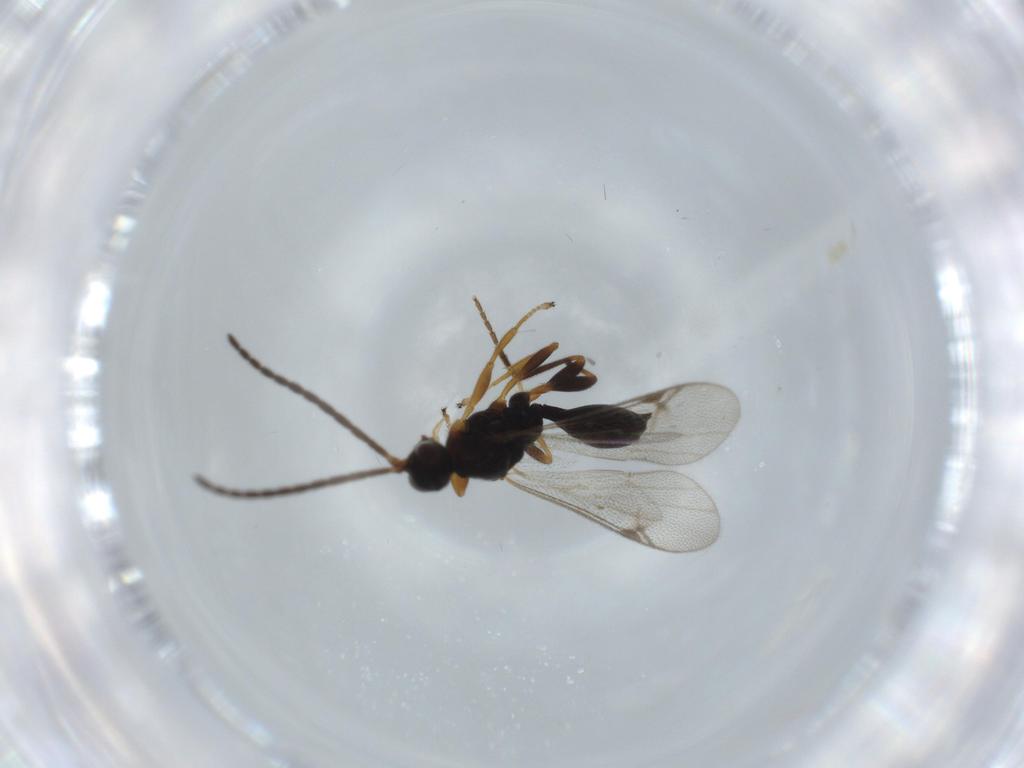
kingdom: Animalia
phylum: Arthropoda
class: Insecta
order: Hymenoptera
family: Proctotrupidae
